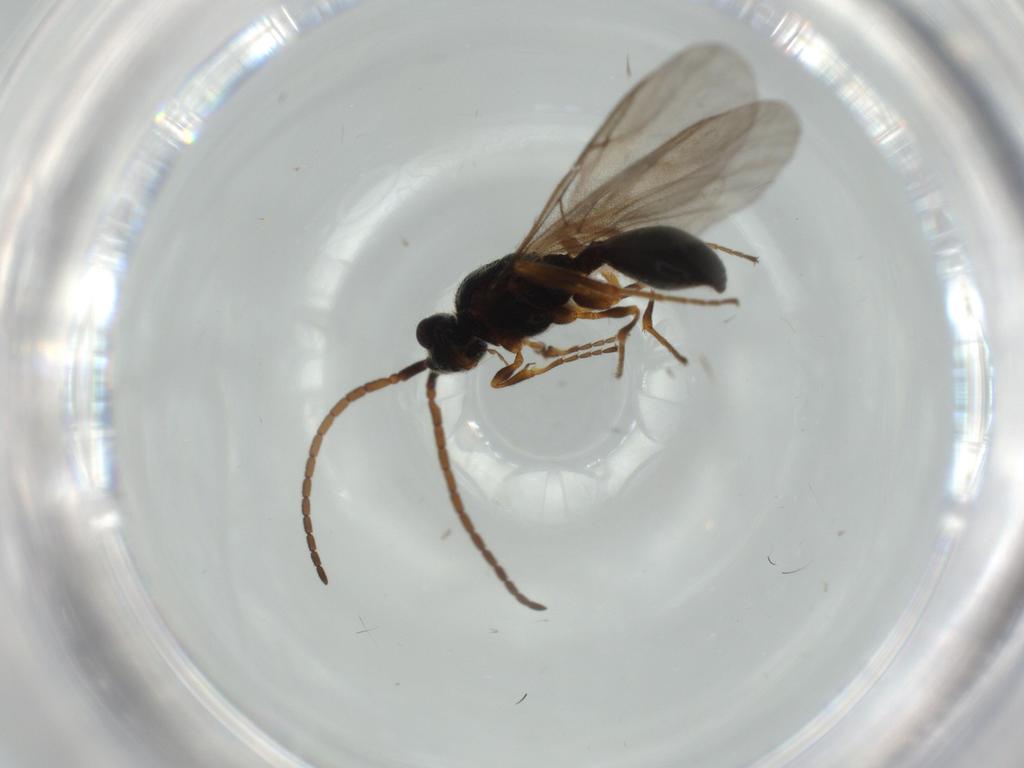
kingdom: Animalia
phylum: Arthropoda
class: Insecta
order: Hymenoptera
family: Diapriidae
